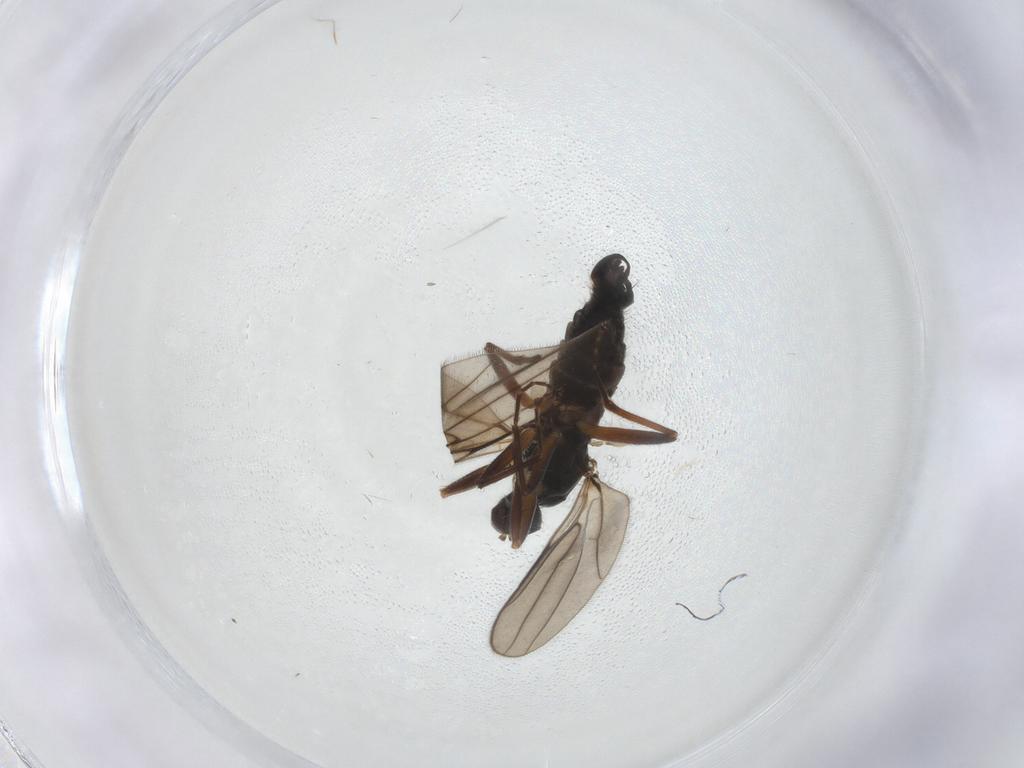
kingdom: Animalia
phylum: Arthropoda
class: Insecta
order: Diptera
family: Hybotidae
